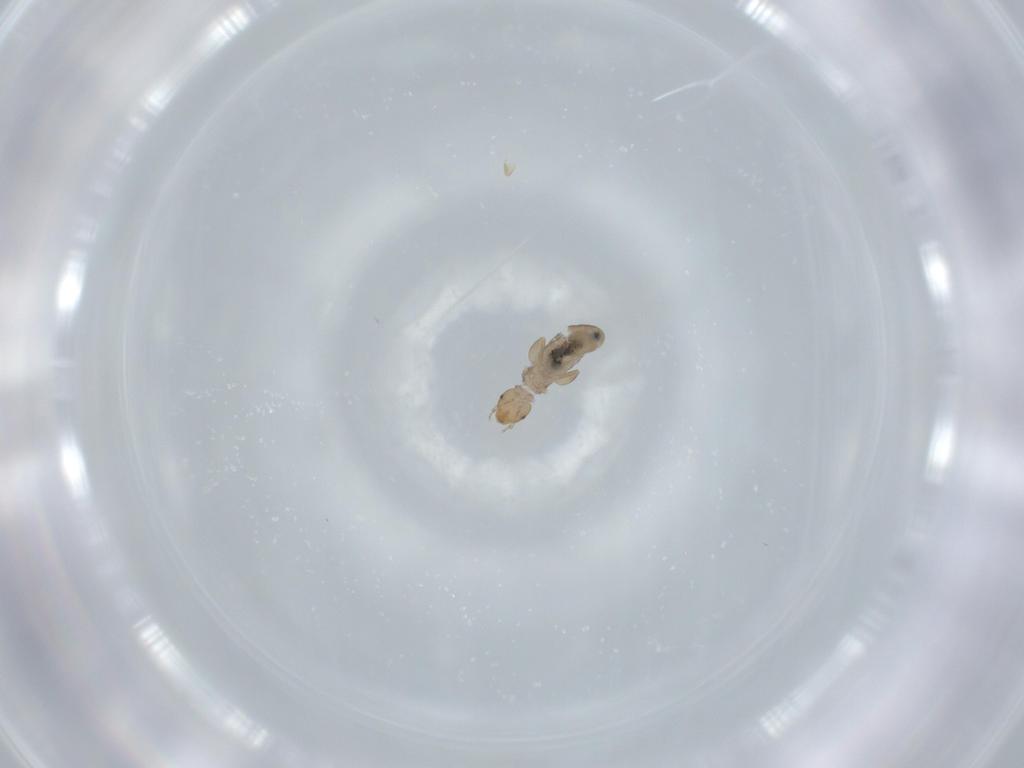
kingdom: Animalia
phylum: Arthropoda
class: Insecta
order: Psocodea
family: Liposcelididae
